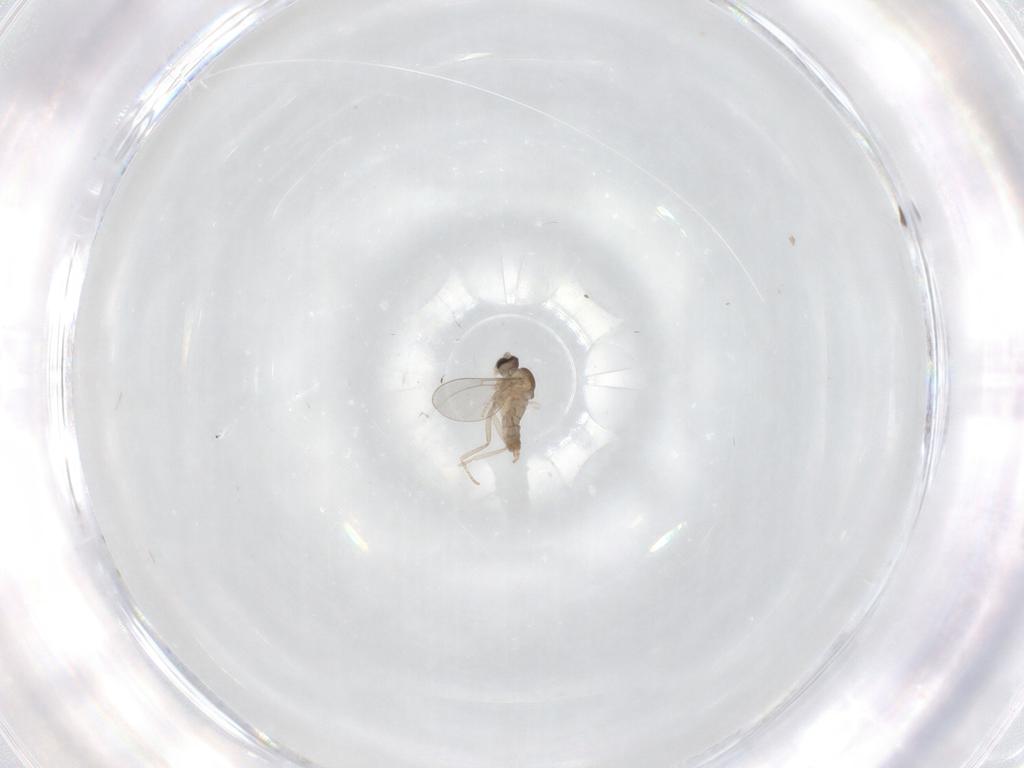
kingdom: Animalia
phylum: Arthropoda
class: Insecta
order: Diptera
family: Cecidomyiidae
